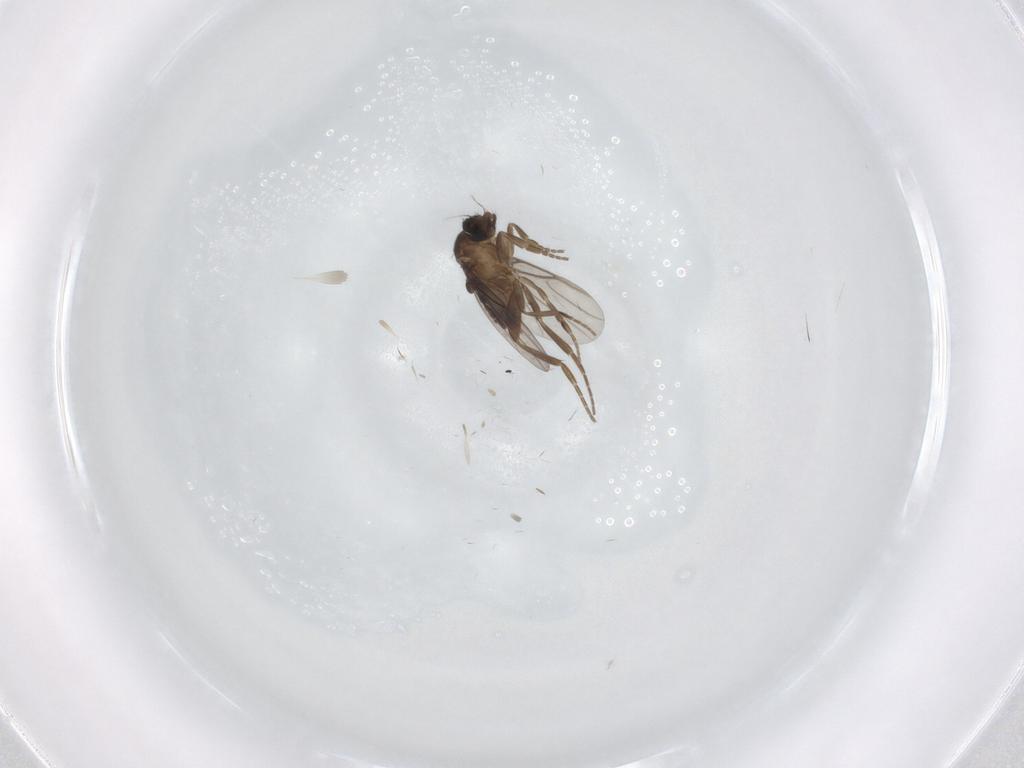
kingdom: Animalia
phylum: Arthropoda
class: Insecta
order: Diptera
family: Phoridae
